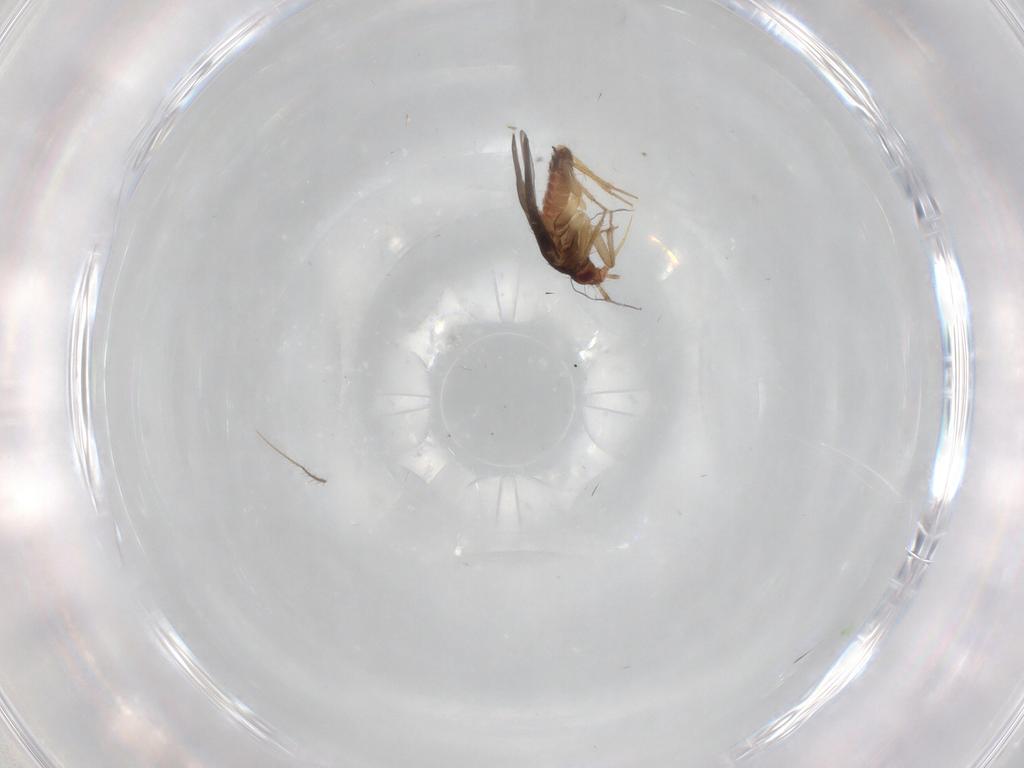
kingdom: Animalia
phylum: Arthropoda
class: Insecta
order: Hemiptera
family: Ceratocombidae
